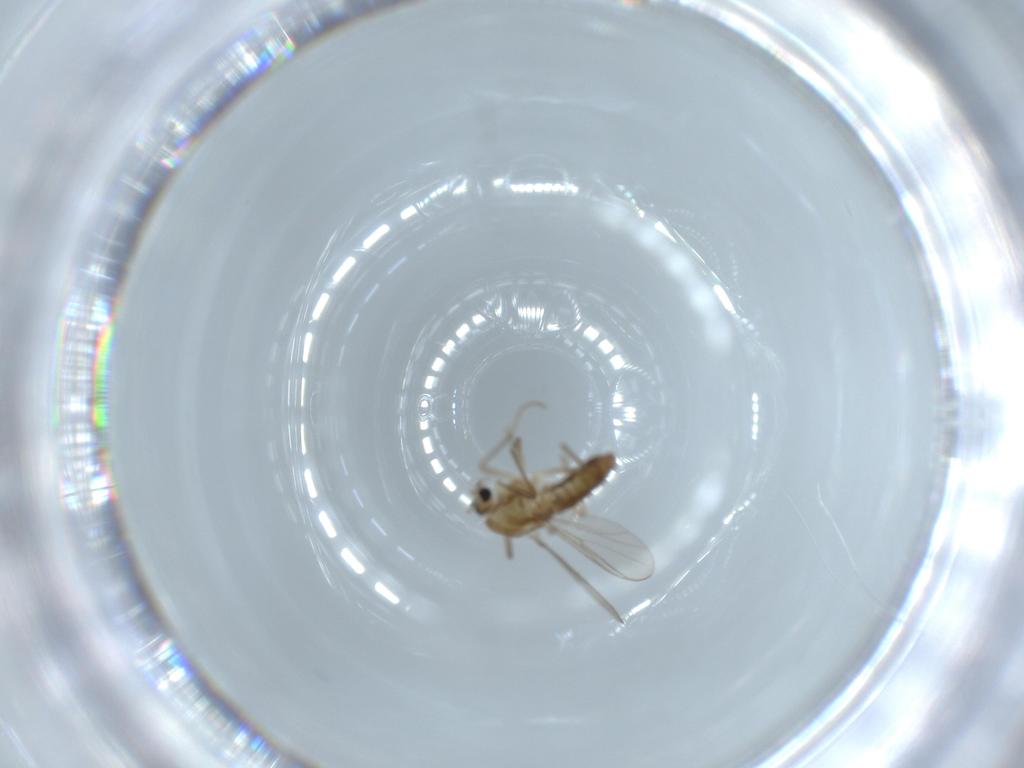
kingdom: Animalia
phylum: Arthropoda
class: Insecta
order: Diptera
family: Chironomidae
